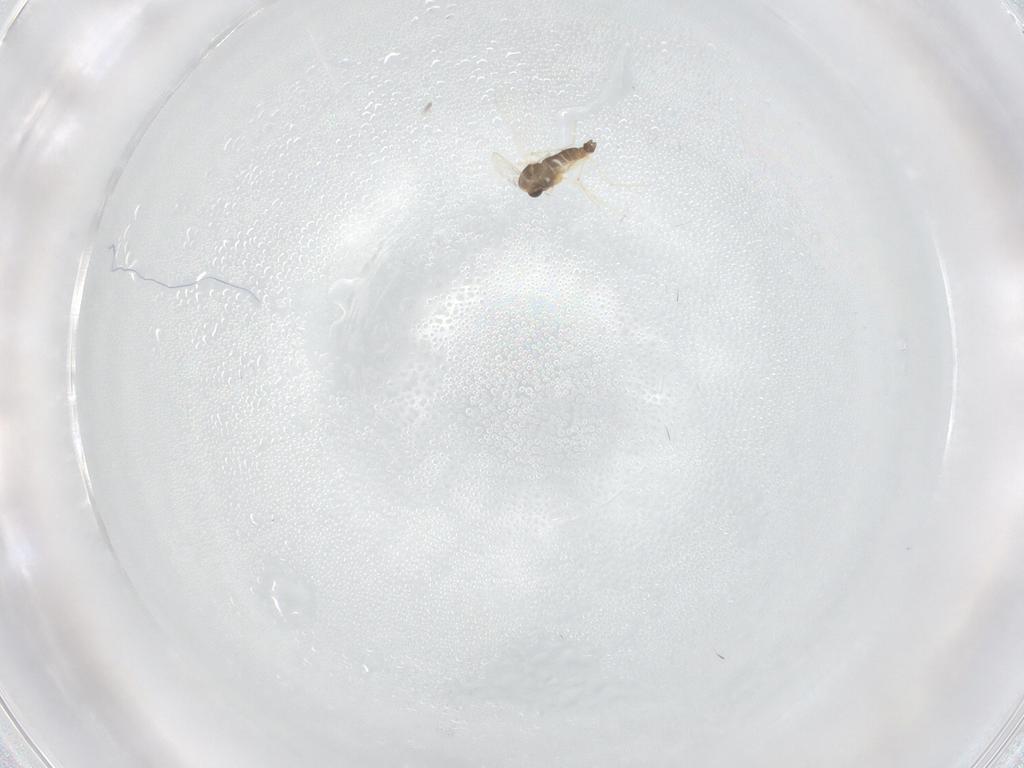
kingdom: Animalia
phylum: Arthropoda
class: Insecta
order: Diptera
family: Chironomidae
